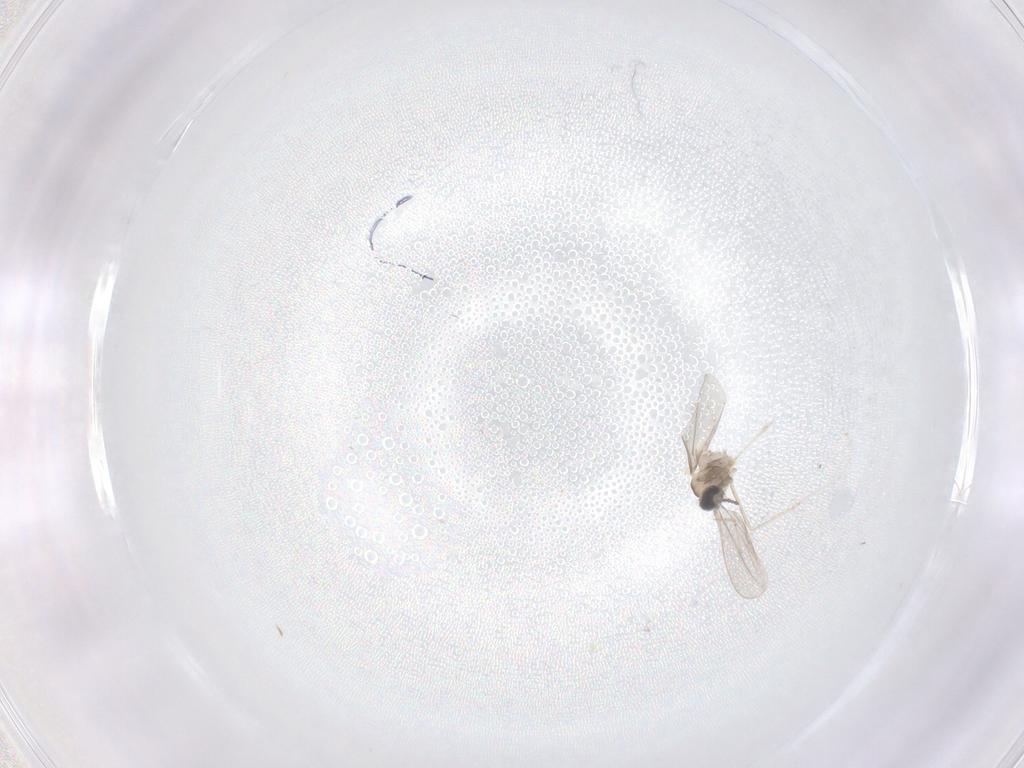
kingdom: Animalia
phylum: Arthropoda
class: Insecta
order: Diptera
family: Cecidomyiidae
